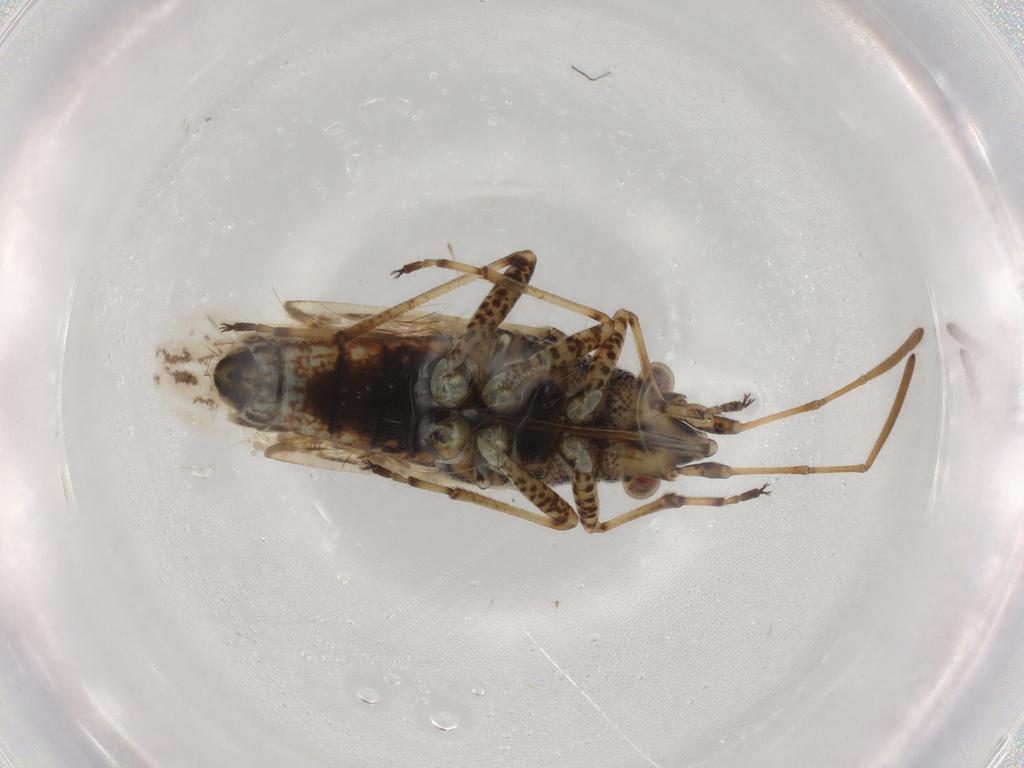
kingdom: Animalia
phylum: Arthropoda
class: Insecta
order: Hemiptera
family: Lygaeidae
